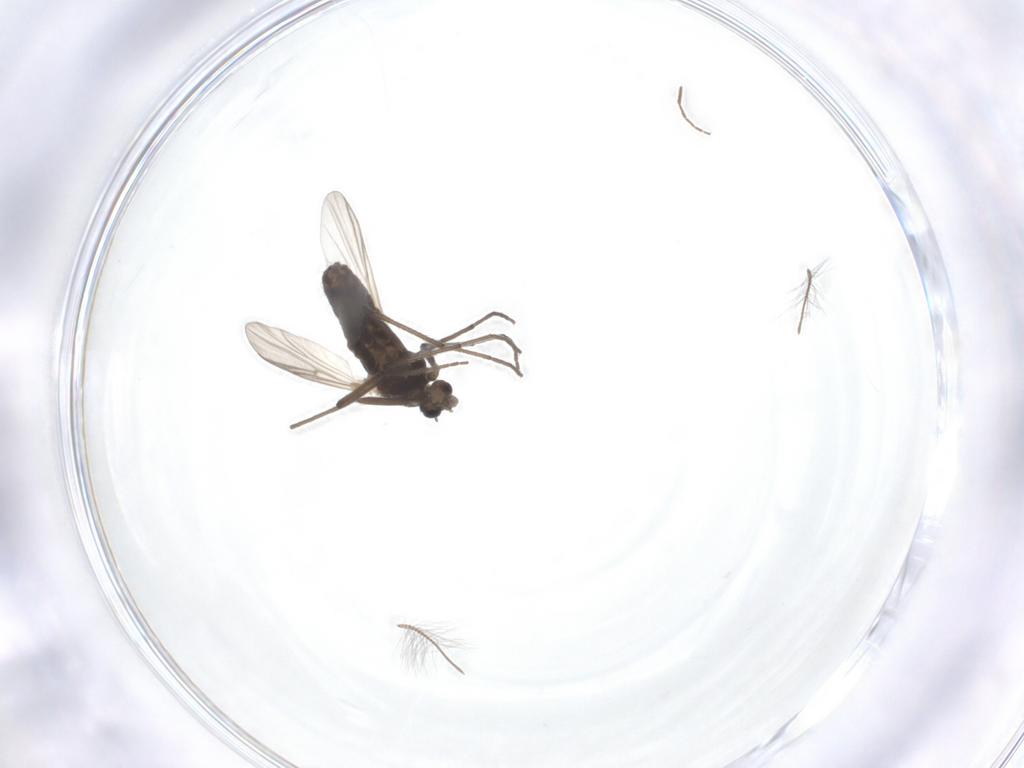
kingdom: Animalia
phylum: Arthropoda
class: Insecta
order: Diptera
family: Chironomidae
